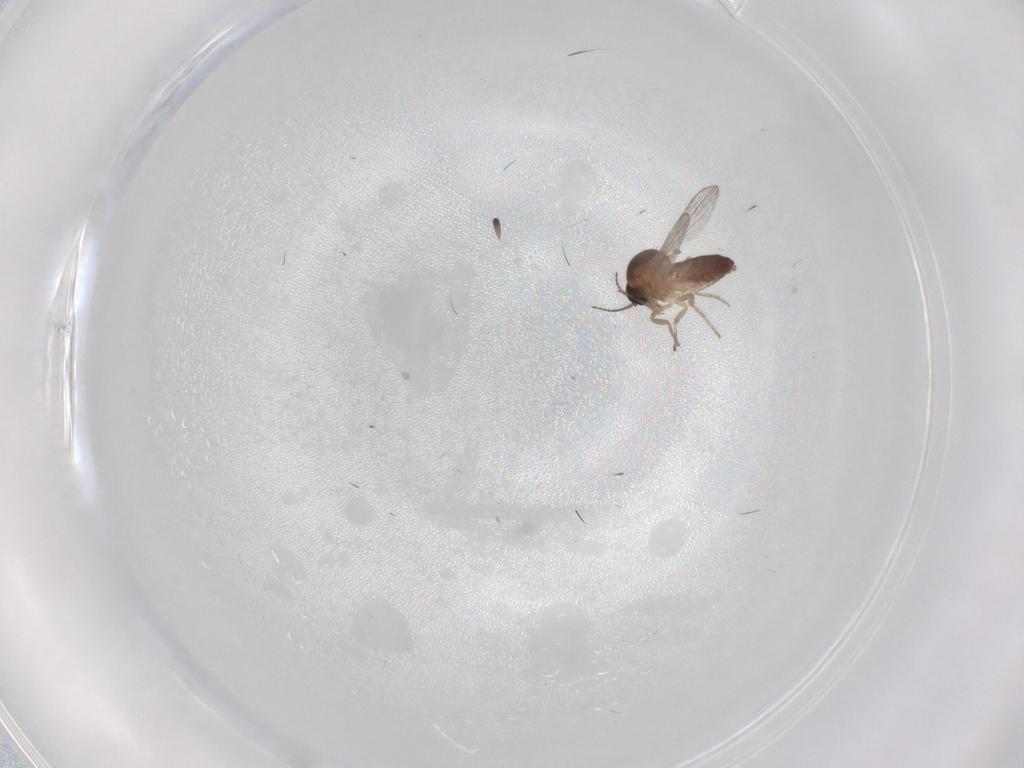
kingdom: Animalia
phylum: Arthropoda
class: Insecta
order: Diptera
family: Ceratopogonidae
